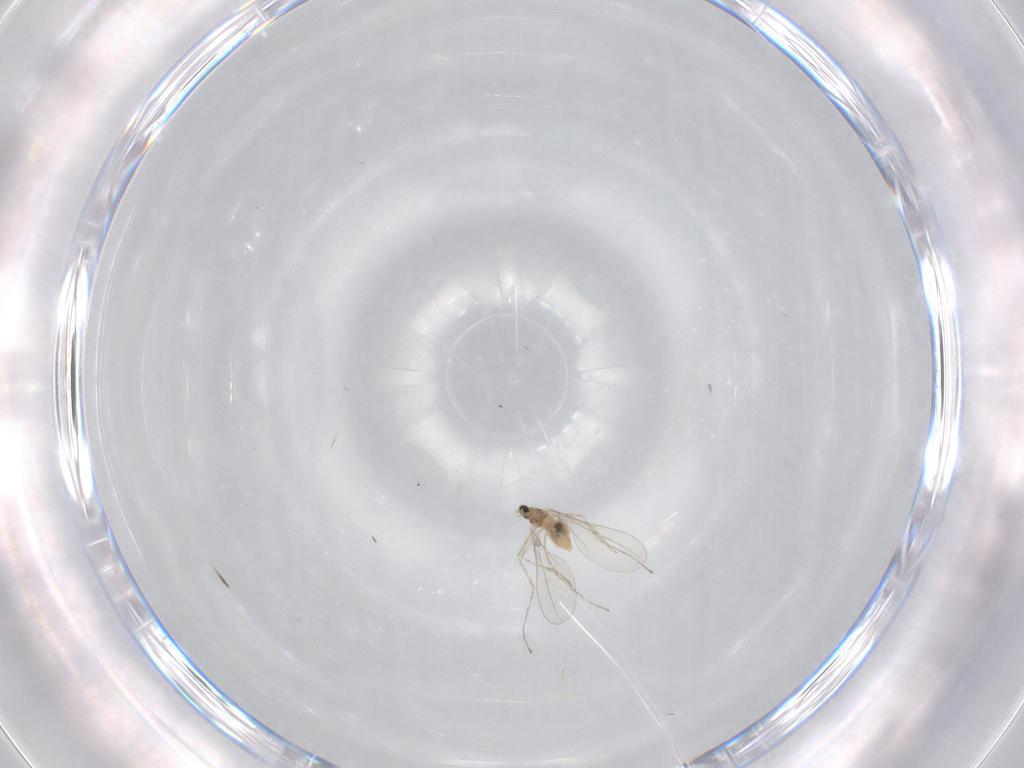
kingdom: Animalia
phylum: Arthropoda
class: Insecta
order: Diptera
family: Cecidomyiidae
